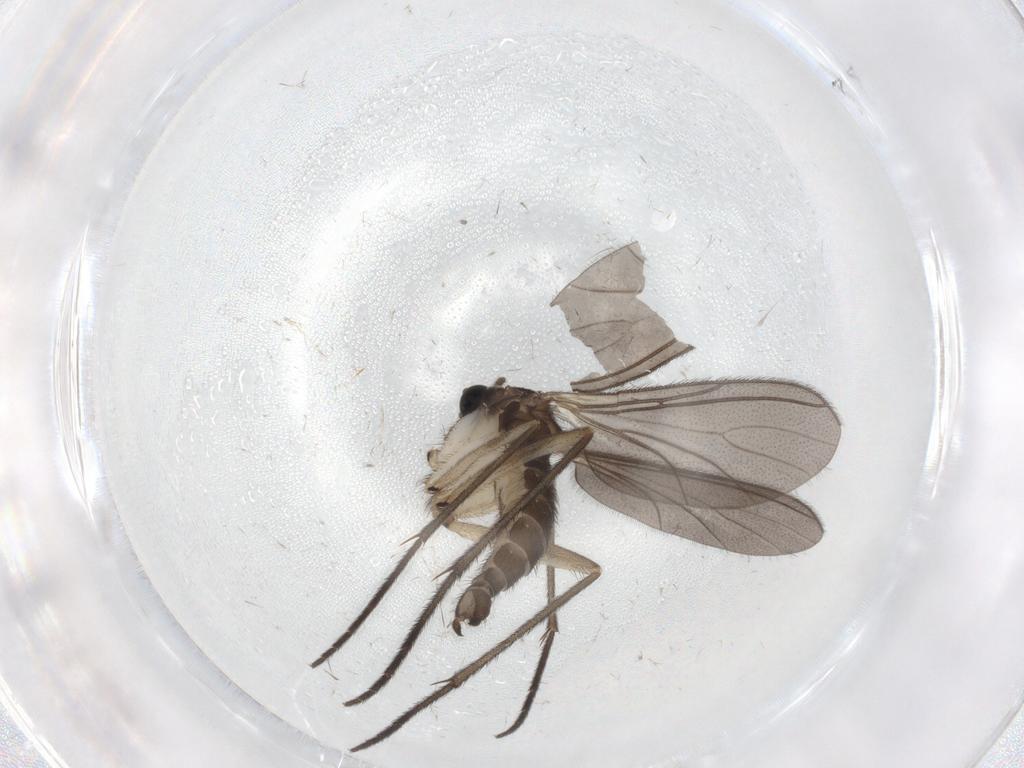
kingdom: Animalia
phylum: Arthropoda
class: Insecta
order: Diptera
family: Sciaridae
